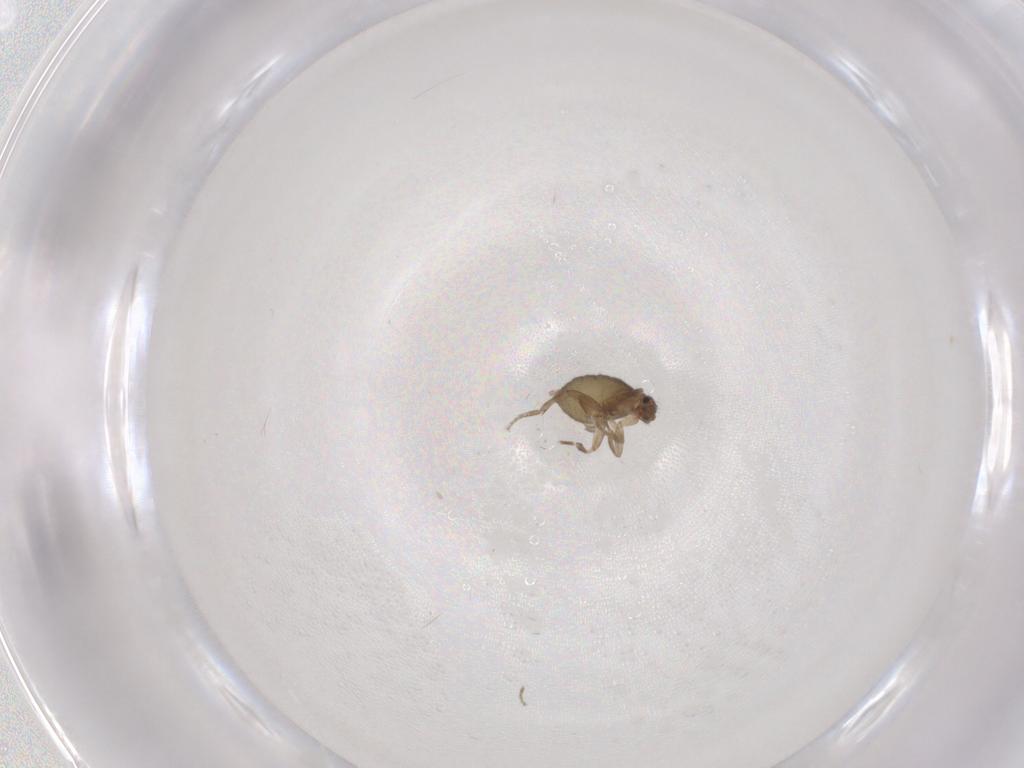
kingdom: Animalia
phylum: Arthropoda
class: Insecta
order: Diptera
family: Phoridae
